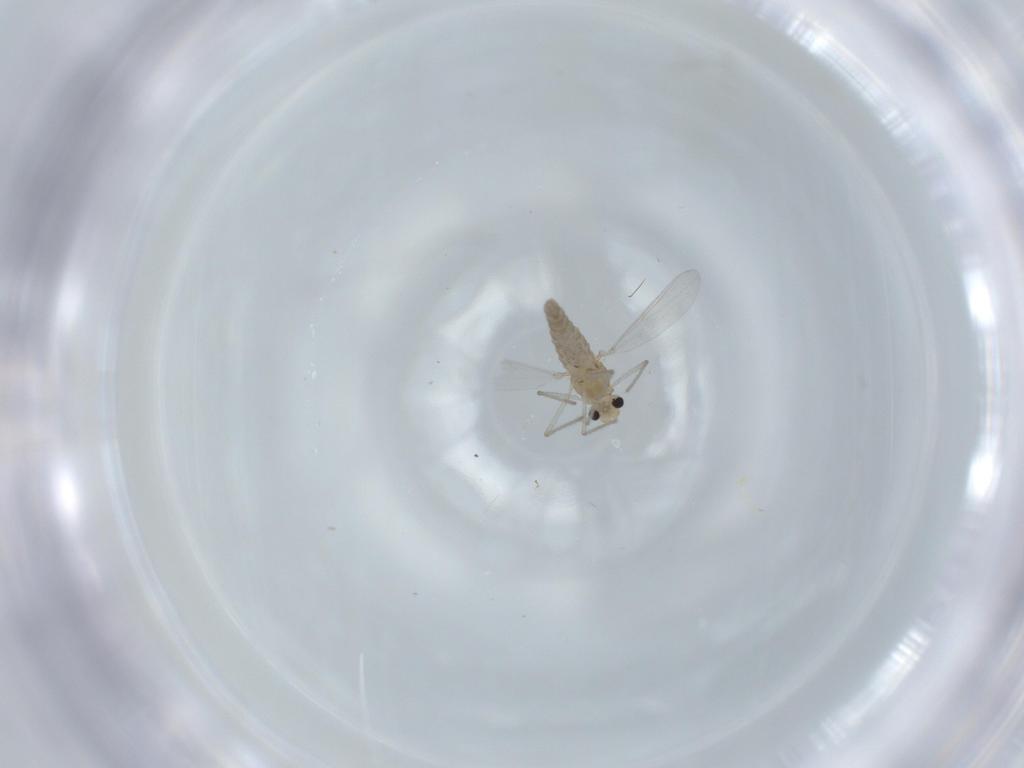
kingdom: Animalia
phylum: Arthropoda
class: Insecta
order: Diptera
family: Chironomidae
